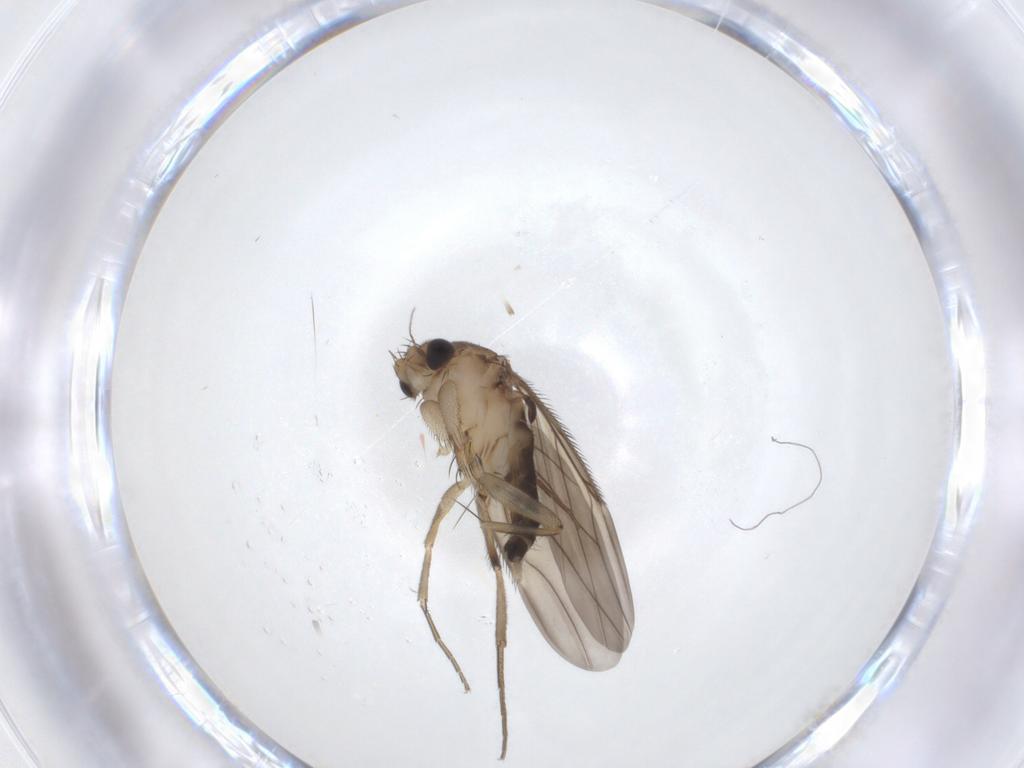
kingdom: Animalia
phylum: Arthropoda
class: Insecta
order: Diptera
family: Phoridae
